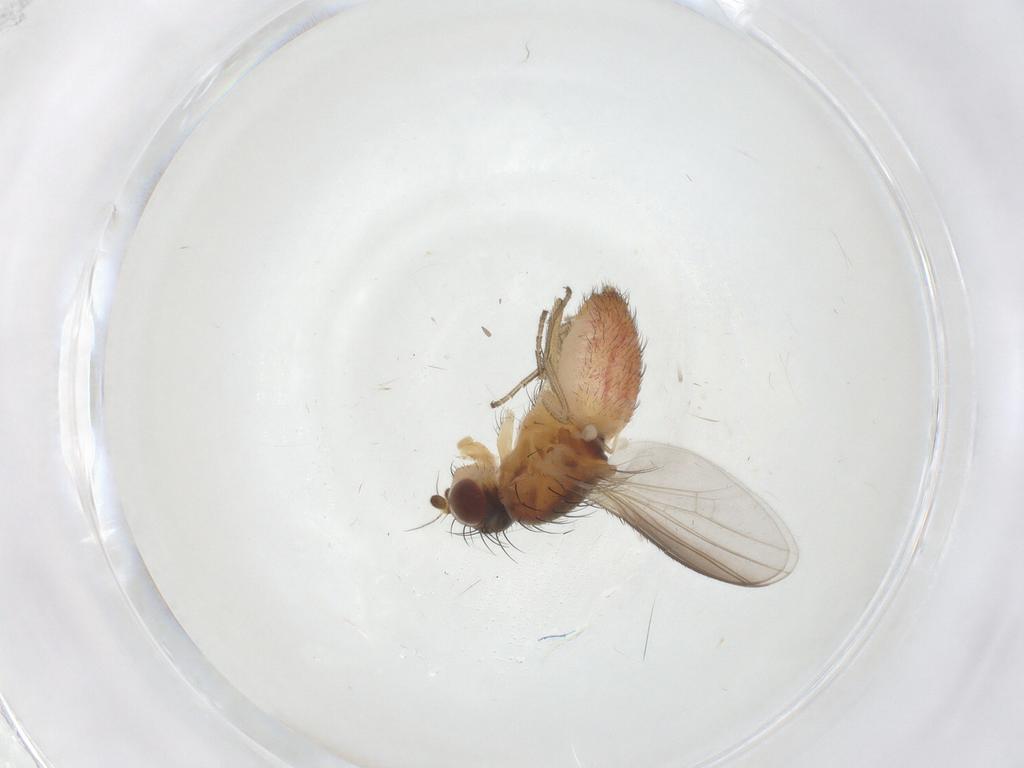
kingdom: Animalia
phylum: Arthropoda
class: Insecta
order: Diptera
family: Heleomyzidae
